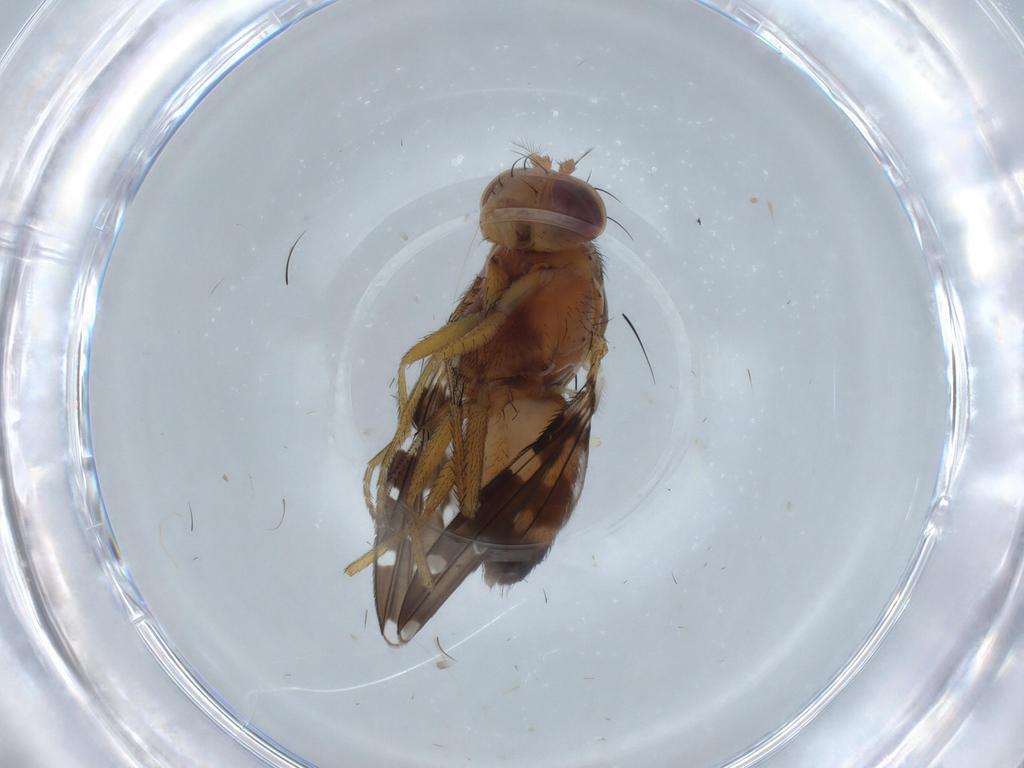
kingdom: Animalia
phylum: Arthropoda
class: Insecta
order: Diptera
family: Ephydridae
